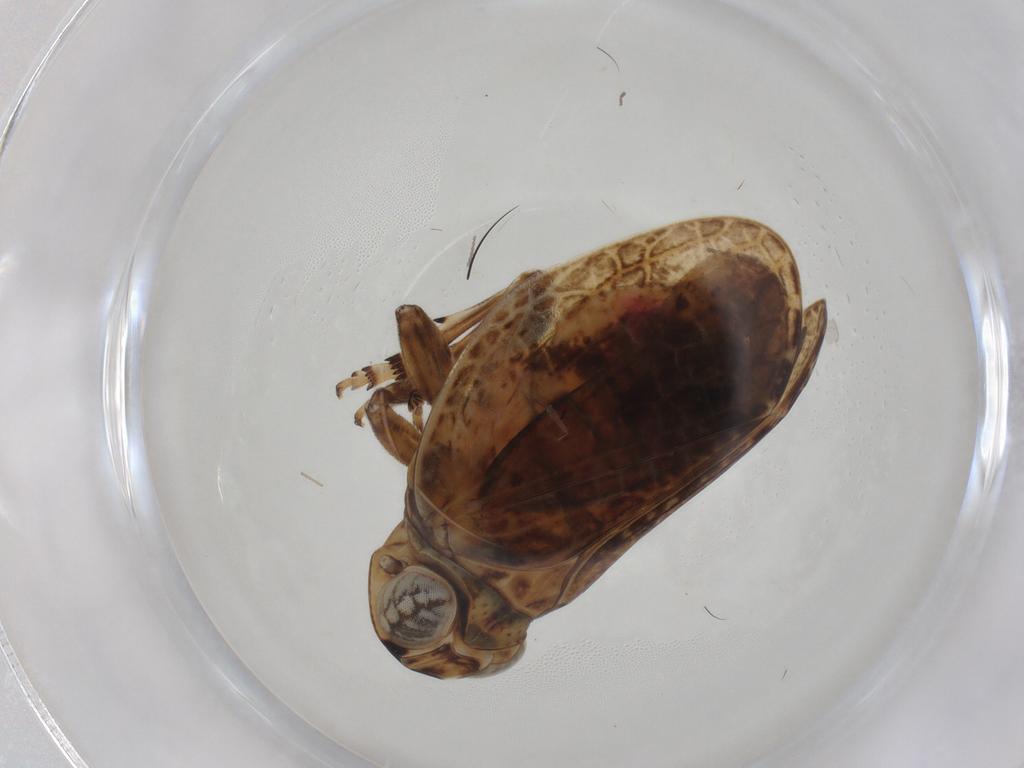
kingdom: Animalia
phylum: Arthropoda
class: Insecta
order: Hemiptera
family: Issidae
